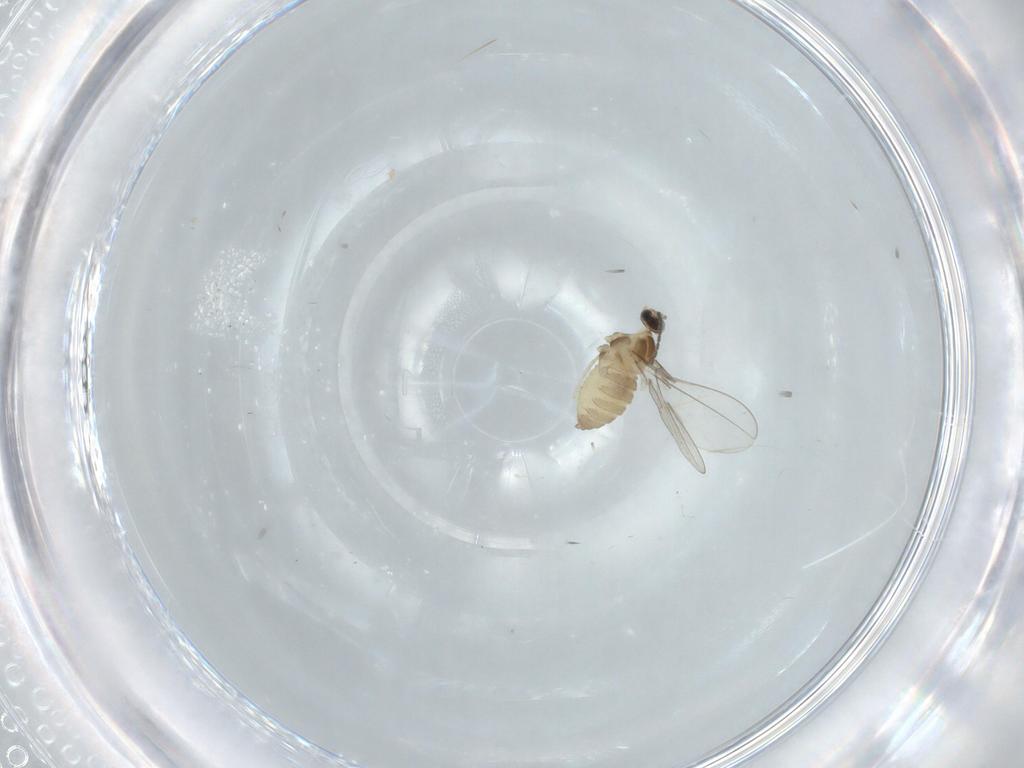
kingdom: Animalia
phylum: Arthropoda
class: Insecta
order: Diptera
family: Cecidomyiidae
